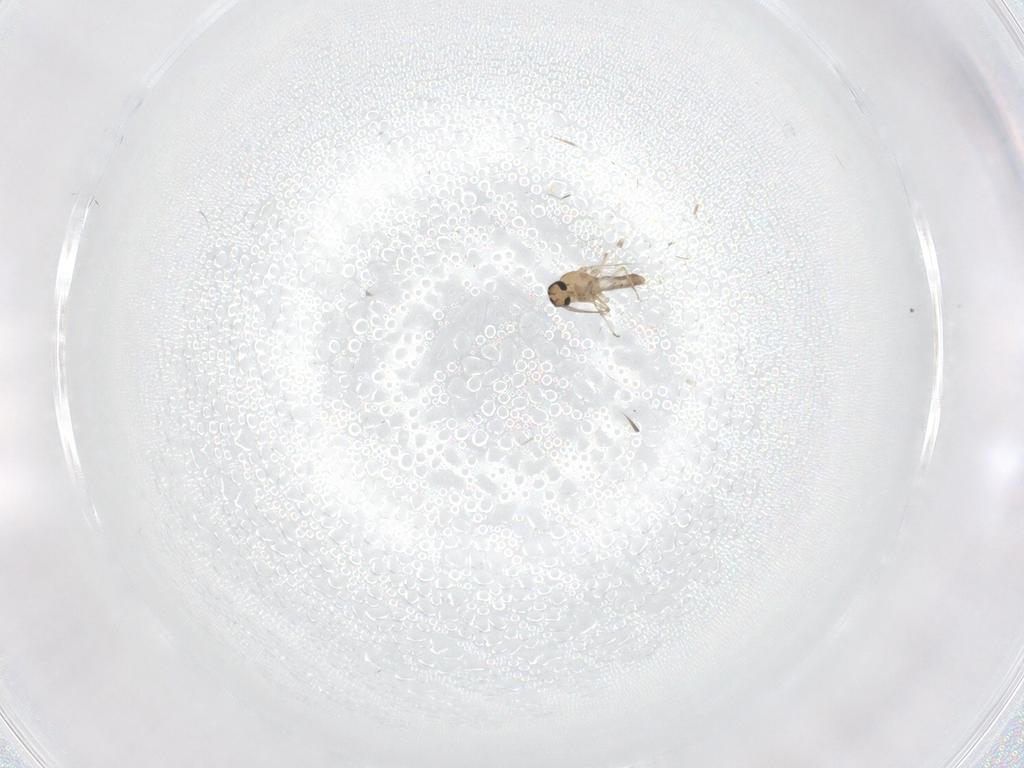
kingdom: Animalia
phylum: Arthropoda
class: Insecta
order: Diptera
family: Ceratopogonidae
